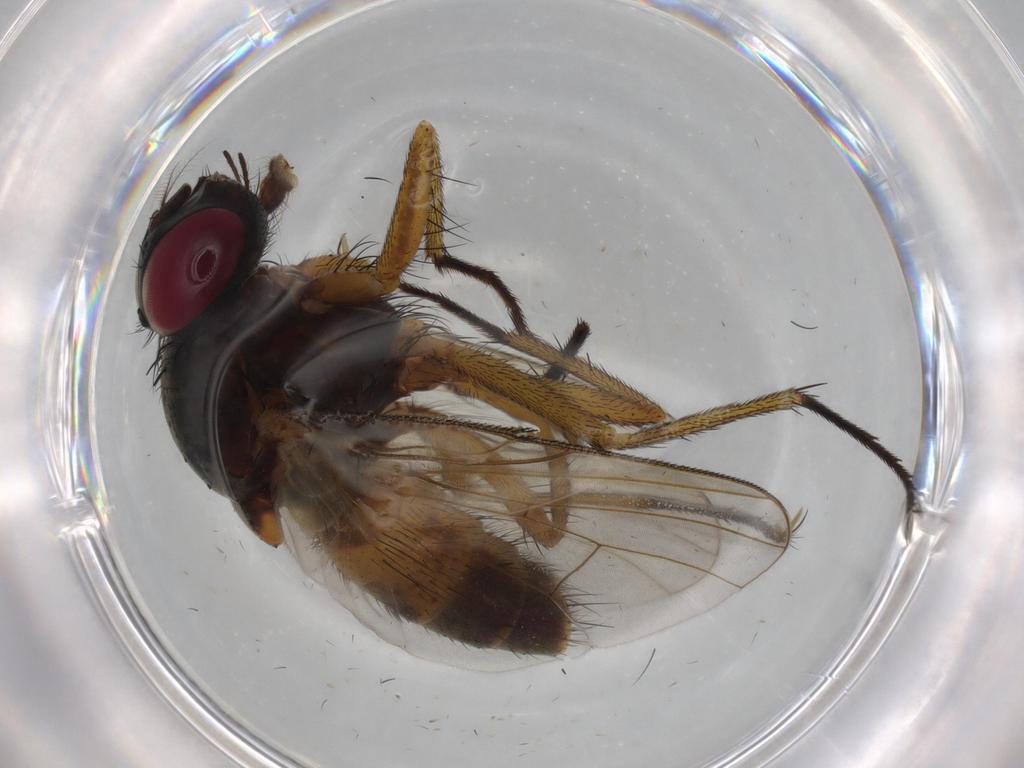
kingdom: Animalia
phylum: Arthropoda
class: Insecta
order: Diptera
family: Muscidae
